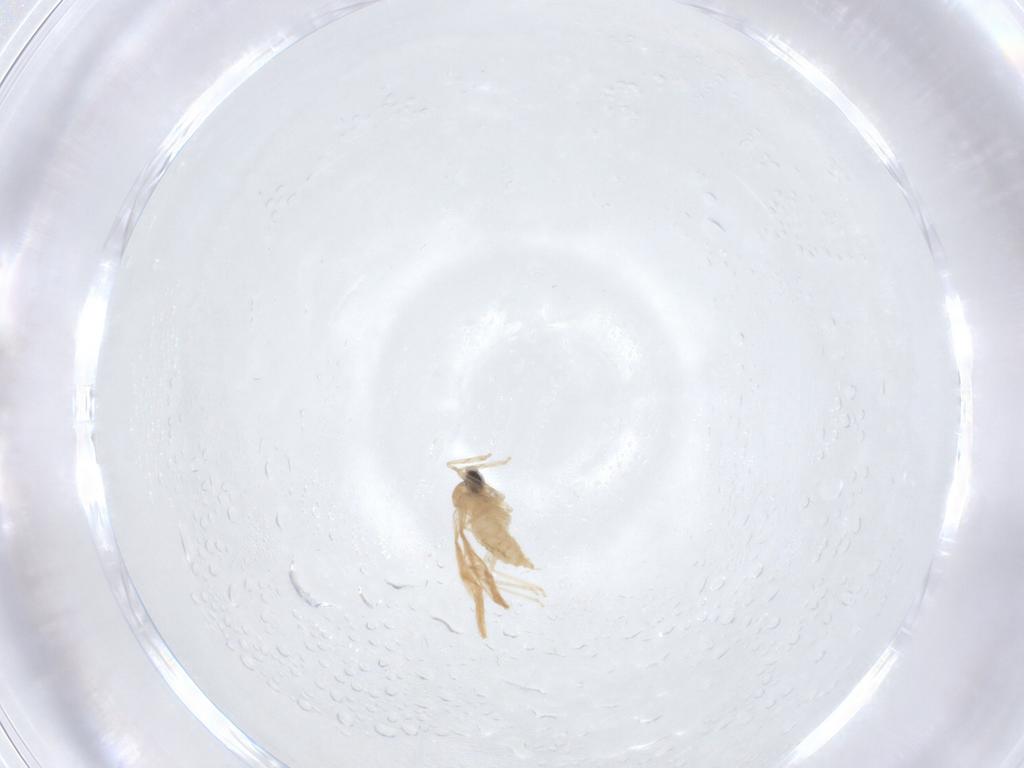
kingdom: Animalia
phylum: Arthropoda
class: Insecta
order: Diptera
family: Cecidomyiidae
